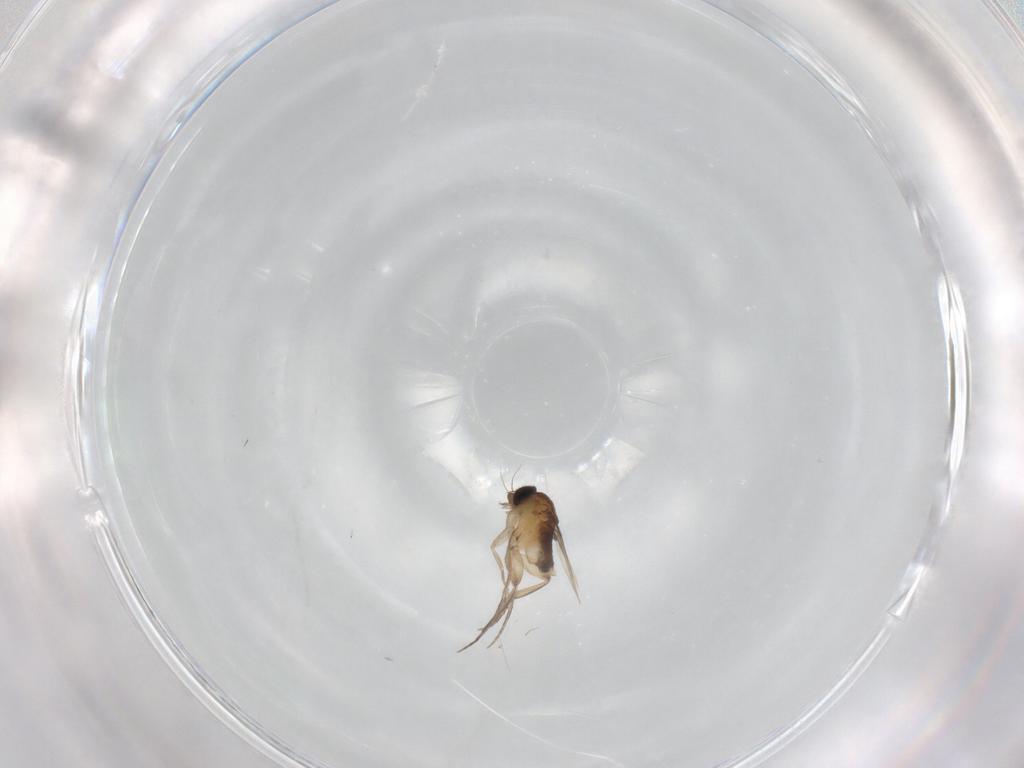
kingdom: Animalia
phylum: Arthropoda
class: Insecta
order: Diptera
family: Phoridae
